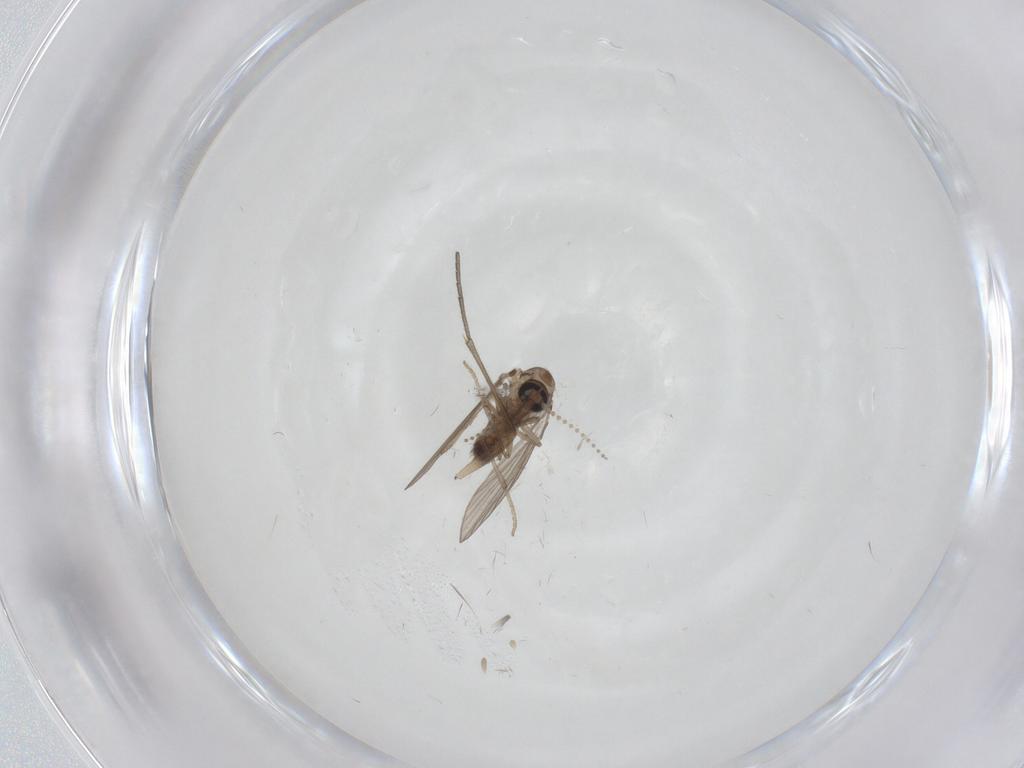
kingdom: Animalia
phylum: Arthropoda
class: Insecta
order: Diptera
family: Psychodidae
